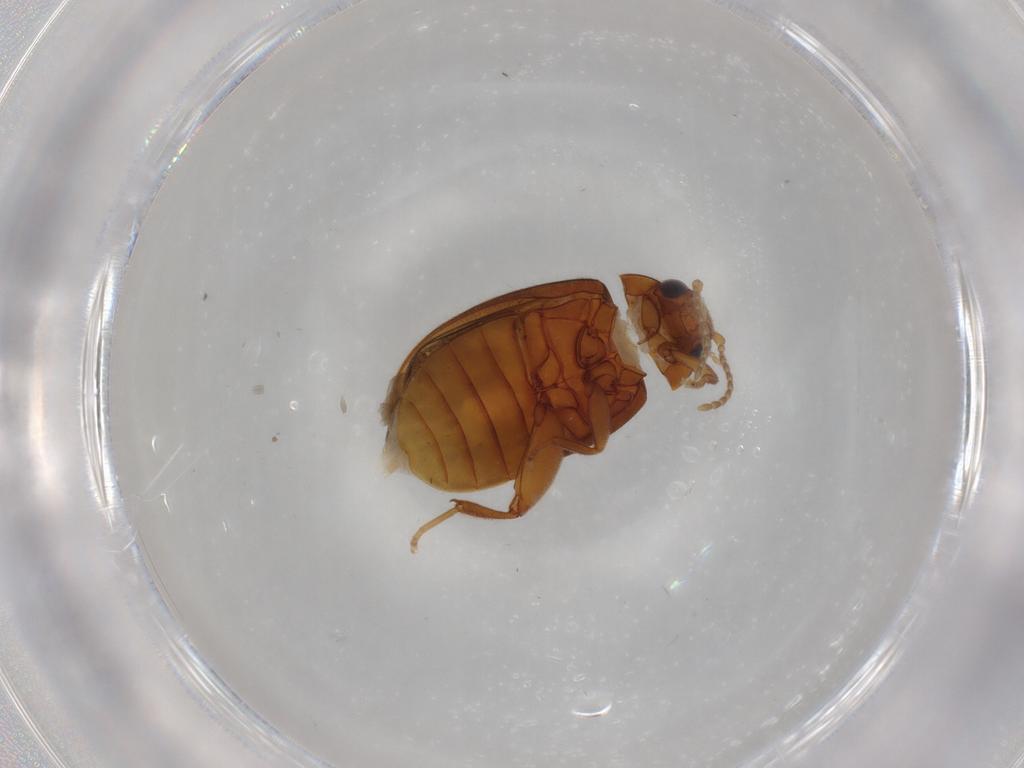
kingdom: Animalia
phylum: Arthropoda
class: Insecta
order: Coleoptera
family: Scirtidae
